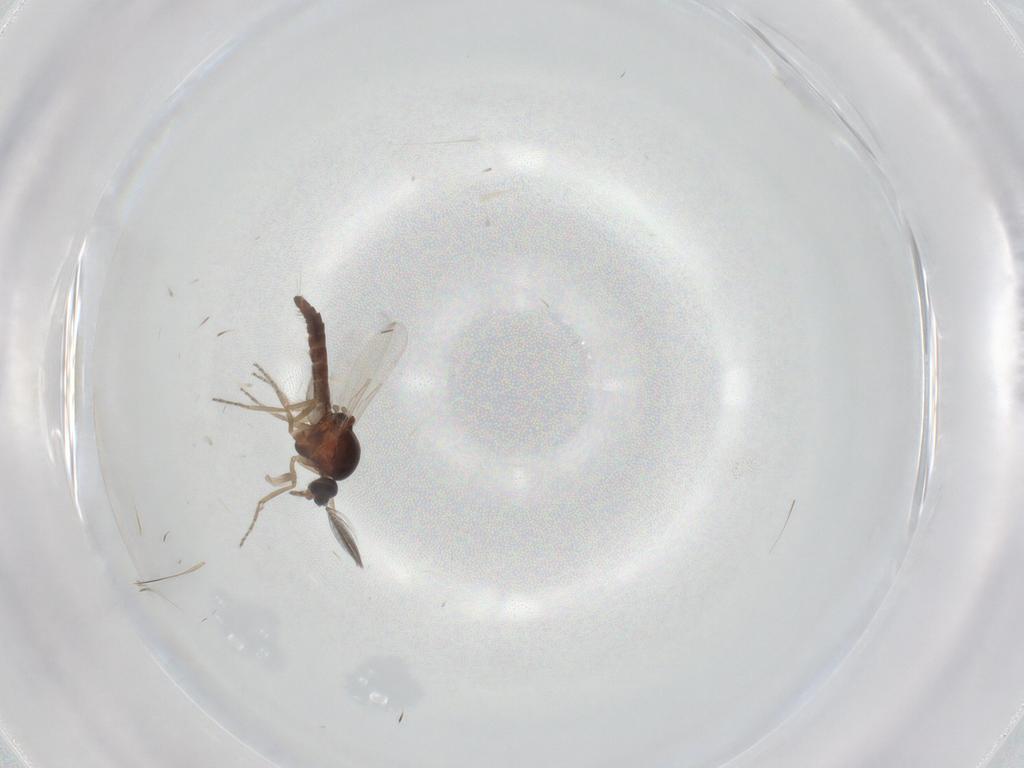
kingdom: Animalia
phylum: Arthropoda
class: Insecta
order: Diptera
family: Ceratopogonidae
